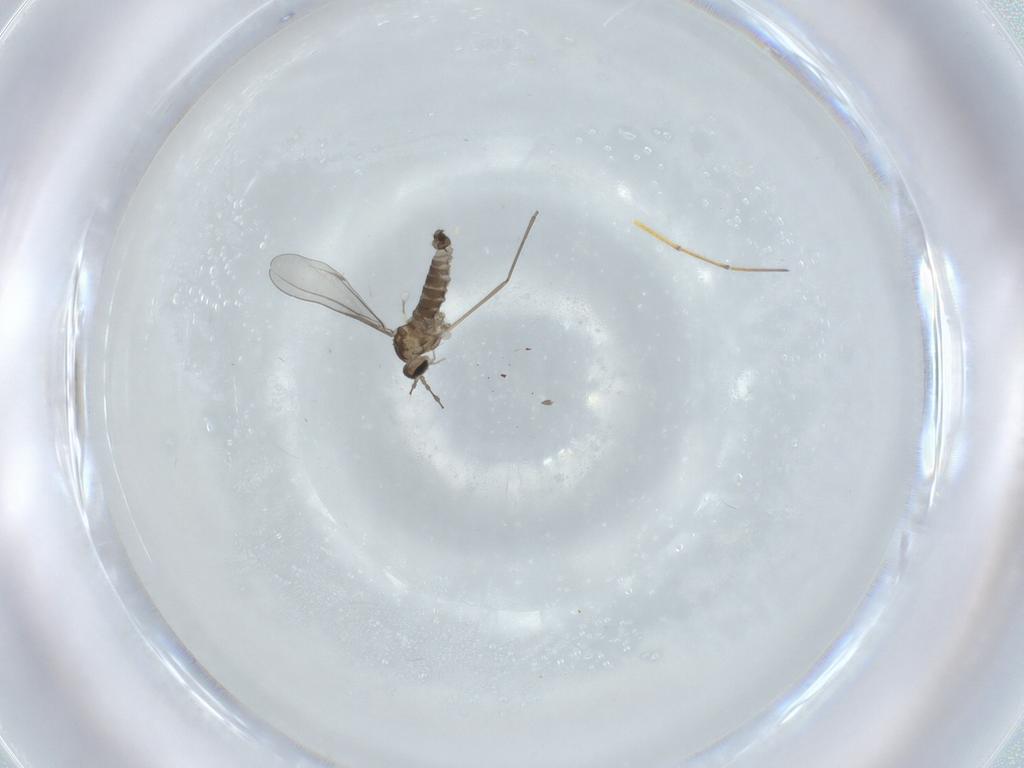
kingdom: Animalia
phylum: Arthropoda
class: Insecta
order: Diptera
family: Cecidomyiidae
